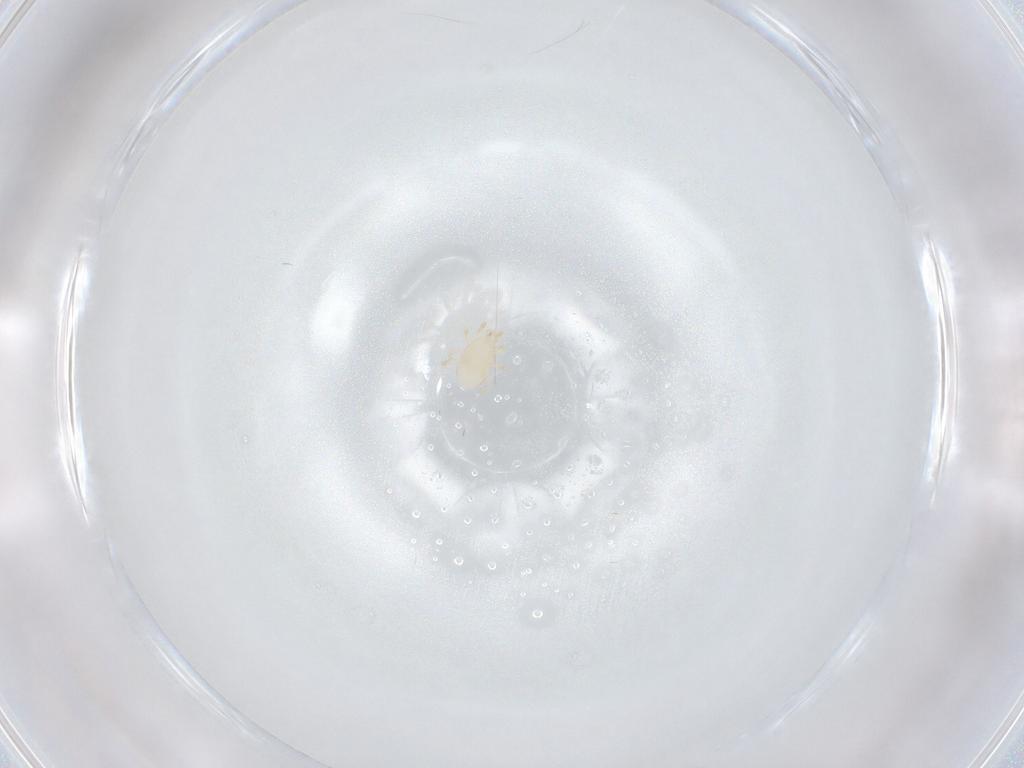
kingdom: Animalia
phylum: Arthropoda
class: Arachnida
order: Mesostigmata
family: Melicharidae
